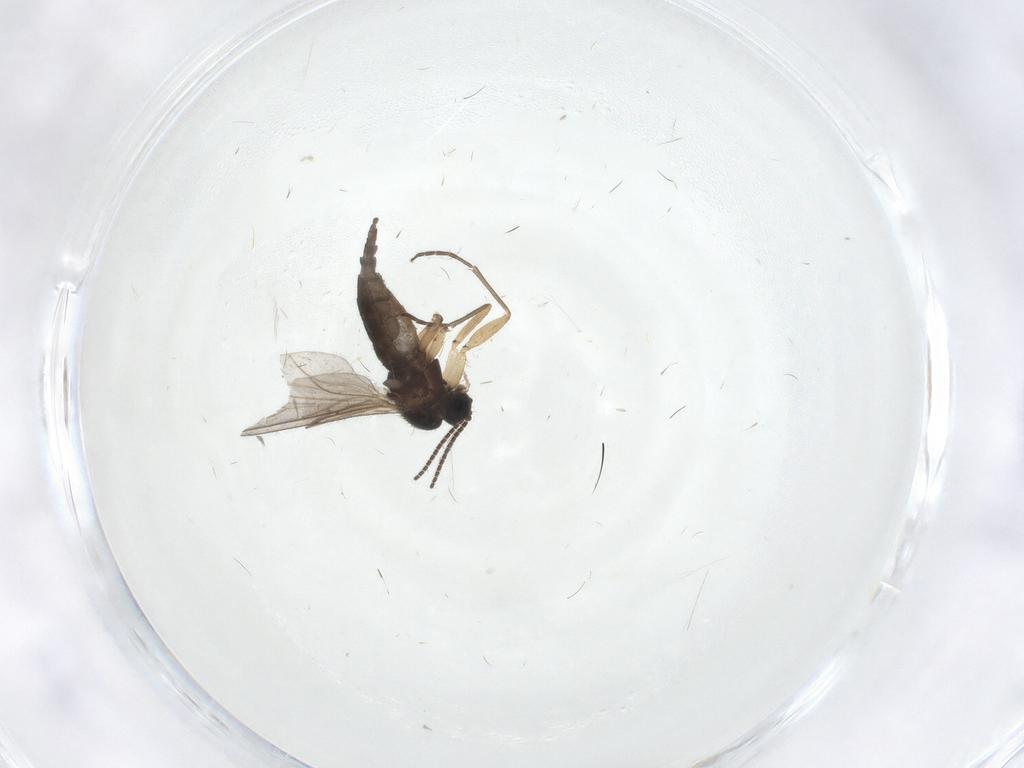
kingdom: Animalia
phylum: Arthropoda
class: Insecta
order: Diptera
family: Sciaridae
